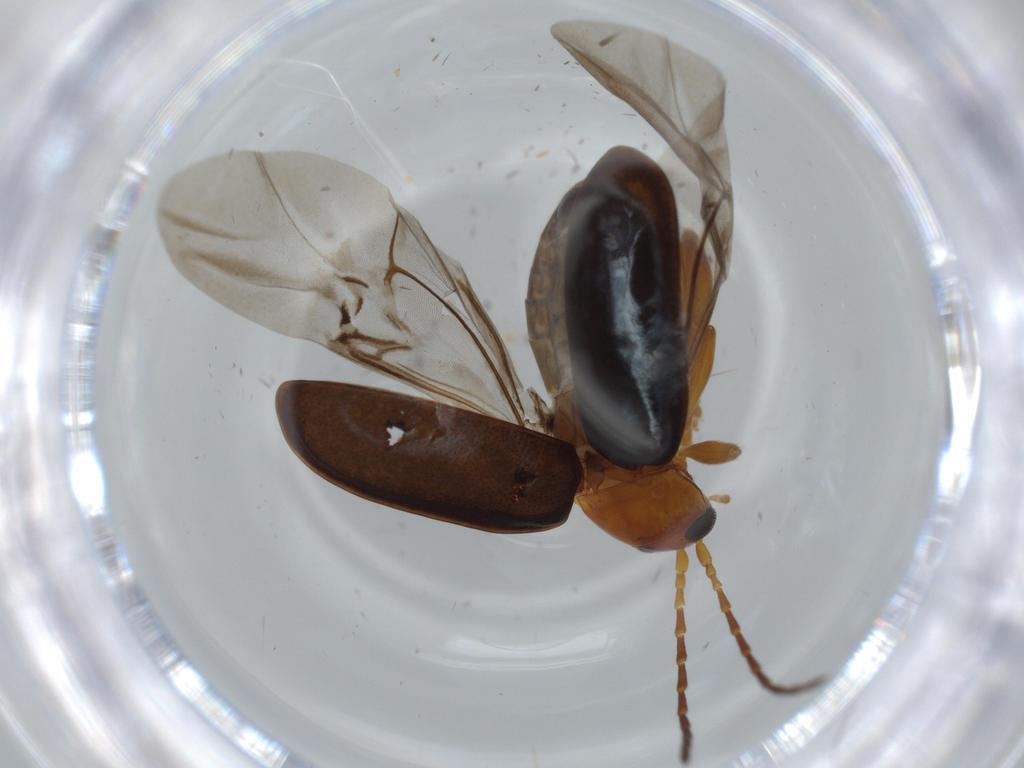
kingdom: Animalia
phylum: Arthropoda
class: Insecta
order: Coleoptera
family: Chrysomelidae
